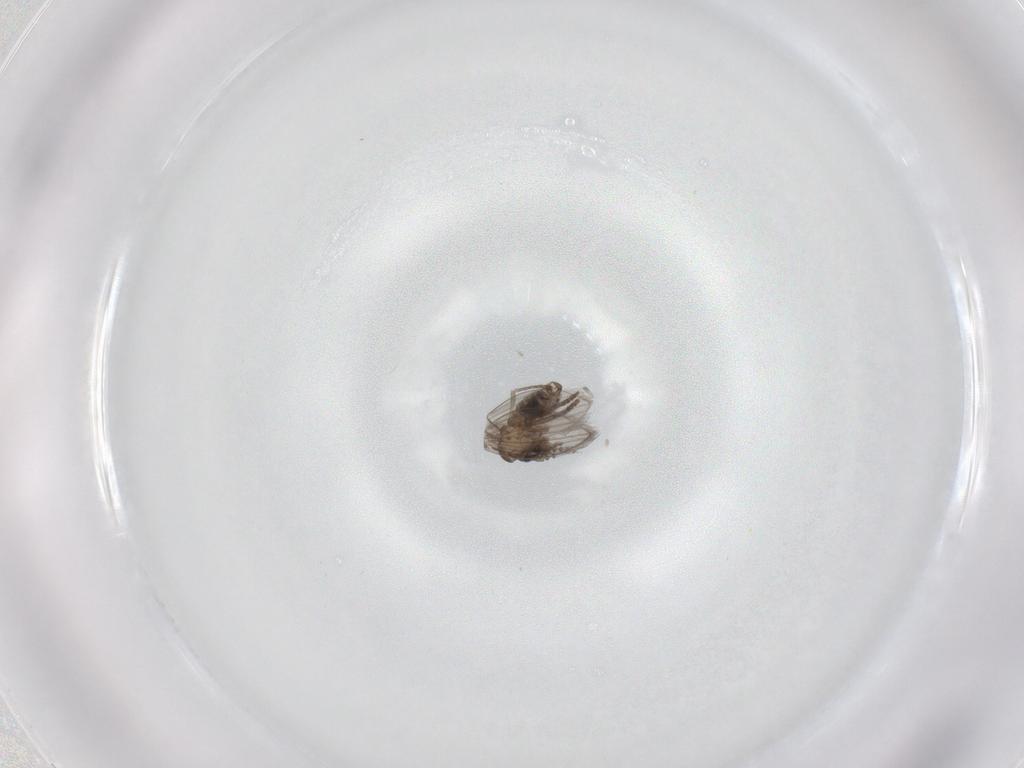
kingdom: Animalia
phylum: Arthropoda
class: Insecta
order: Diptera
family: Psychodidae
